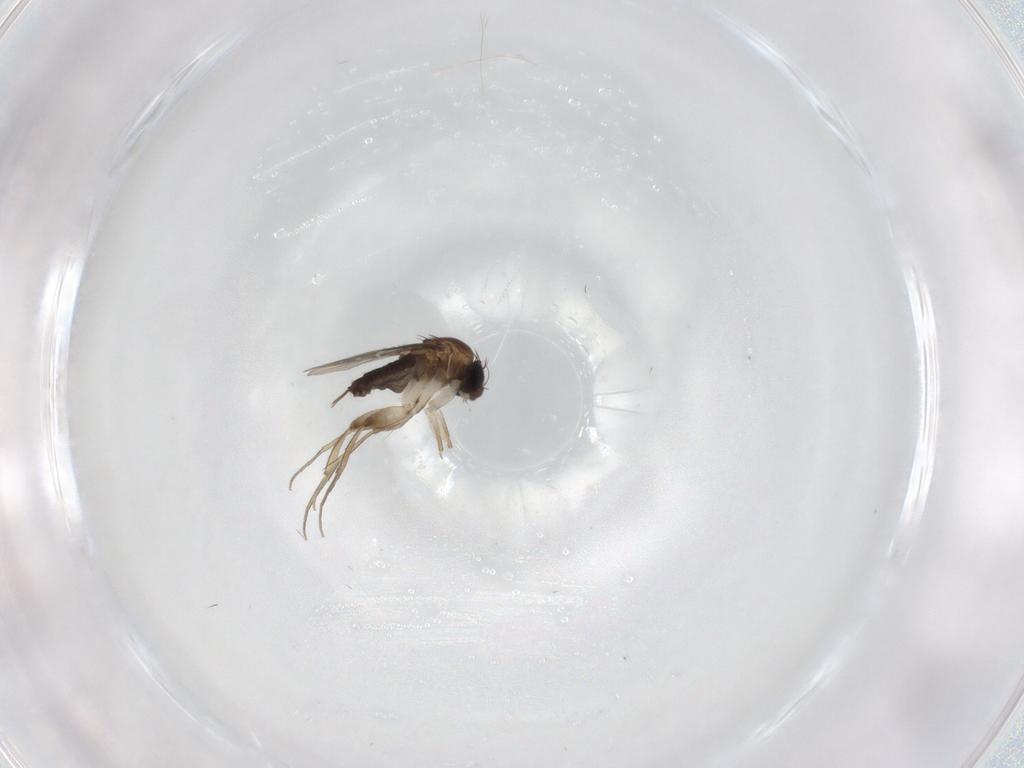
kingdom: Animalia
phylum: Arthropoda
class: Insecta
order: Diptera
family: Phoridae
